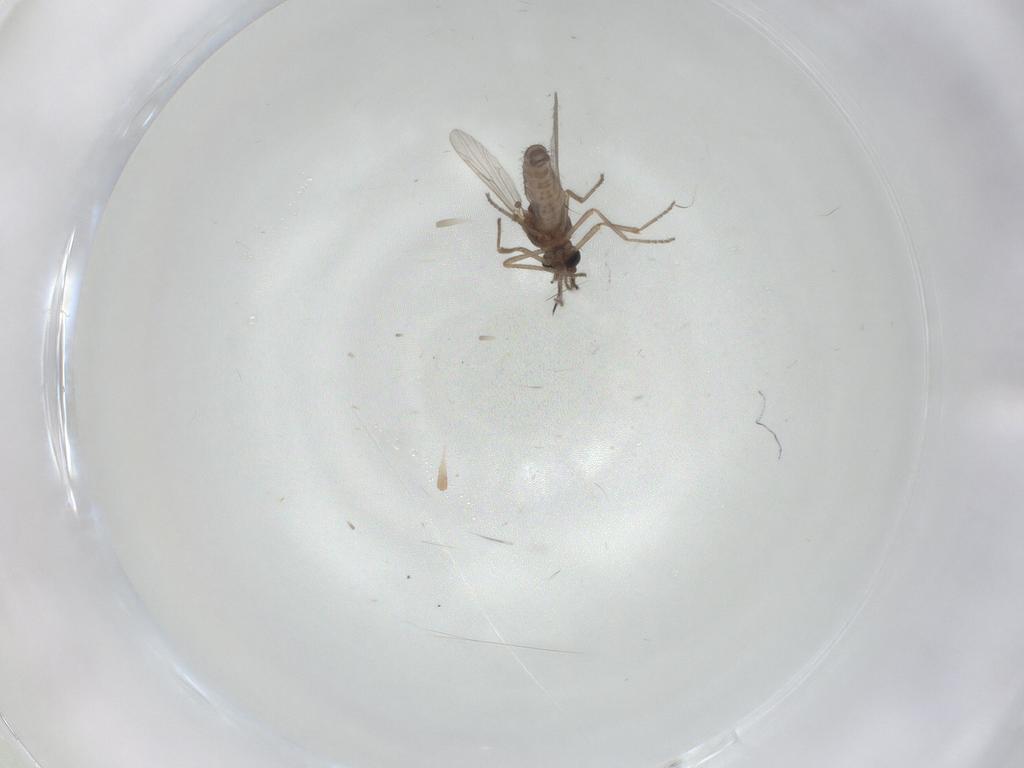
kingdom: Animalia
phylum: Arthropoda
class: Insecta
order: Diptera
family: Ceratopogonidae
